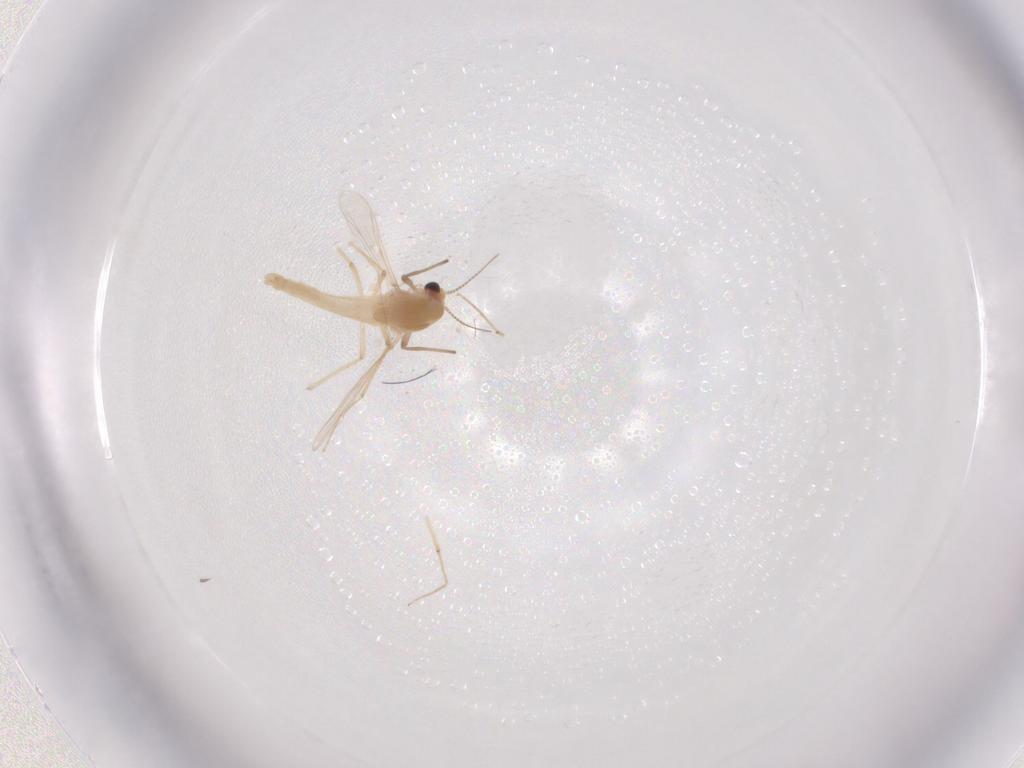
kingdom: Animalia
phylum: Arthropoda
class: Insecta
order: Diptera
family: Chironomidae
